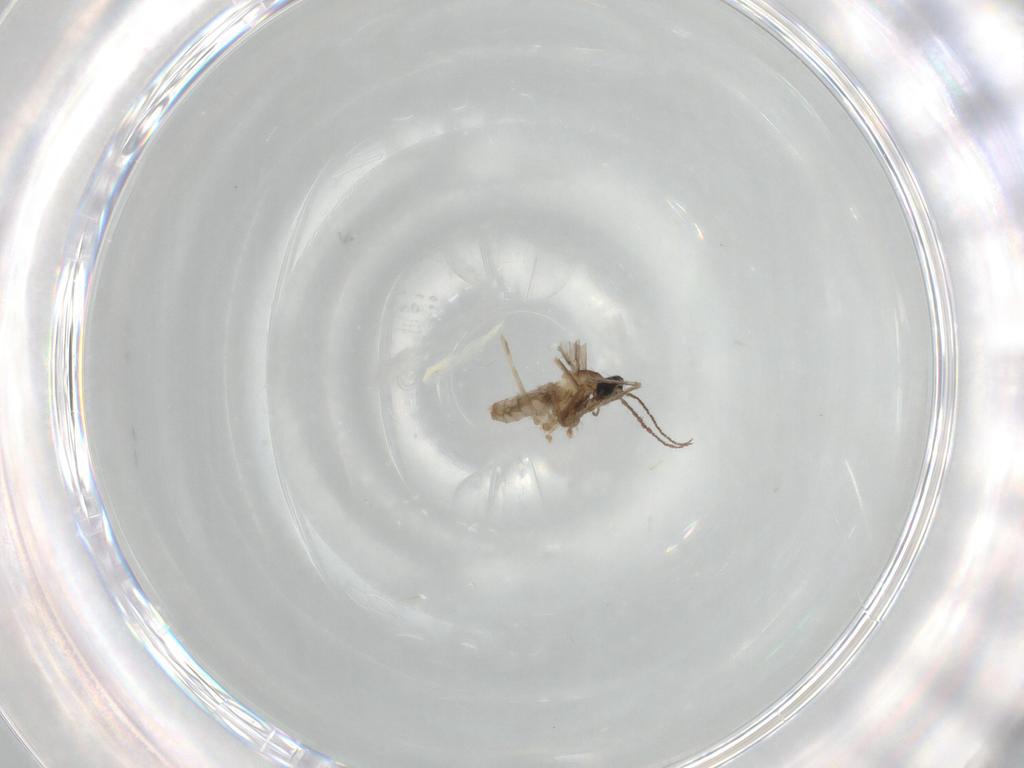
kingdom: Animalia
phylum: Arthropoda
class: Insecta
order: Diptera
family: Cecidomyiidae
